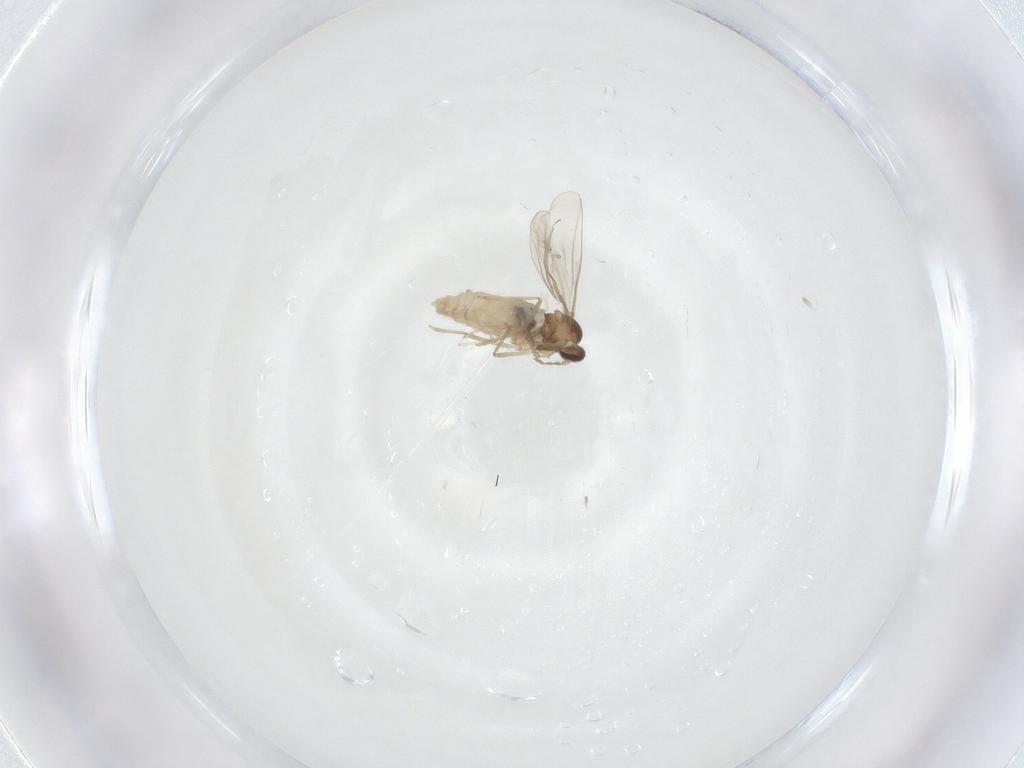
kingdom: Animalia
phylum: Arthropoda
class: Insecta
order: Diptera
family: Cecidomyiidae
